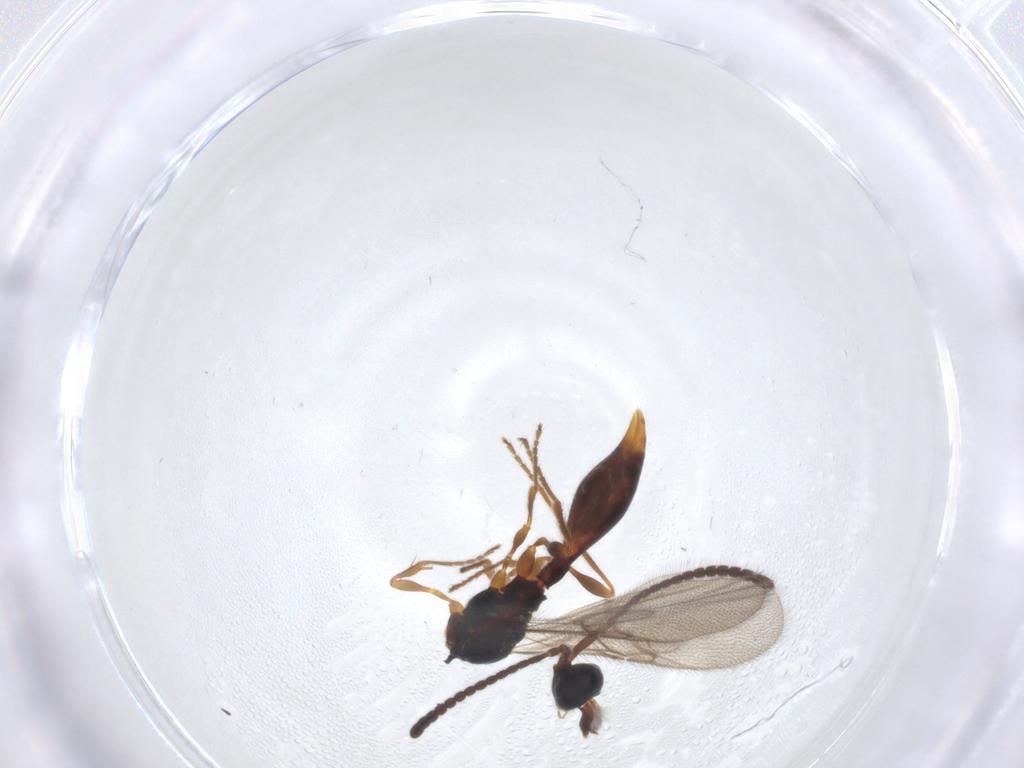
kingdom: Animalia
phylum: Arthropoda
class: Insecta
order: Hymenoptera
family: Diapriidae
